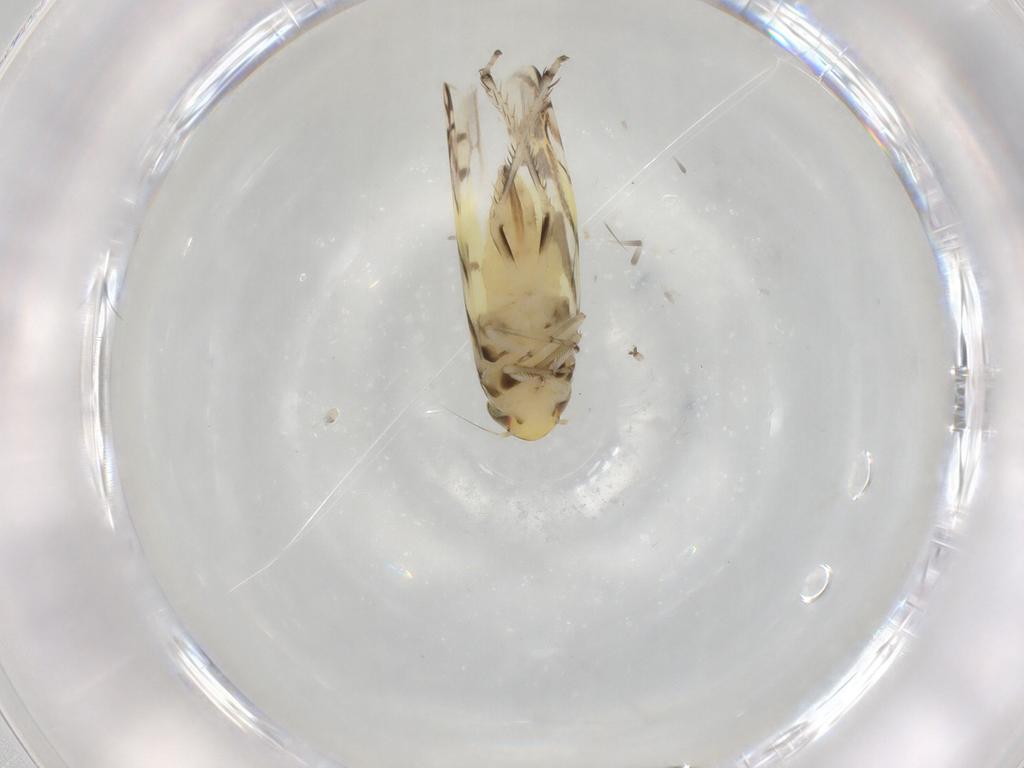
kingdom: Animalia
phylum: Arthropoda
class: Insecta
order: Hemiptera
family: Cicadellidae
